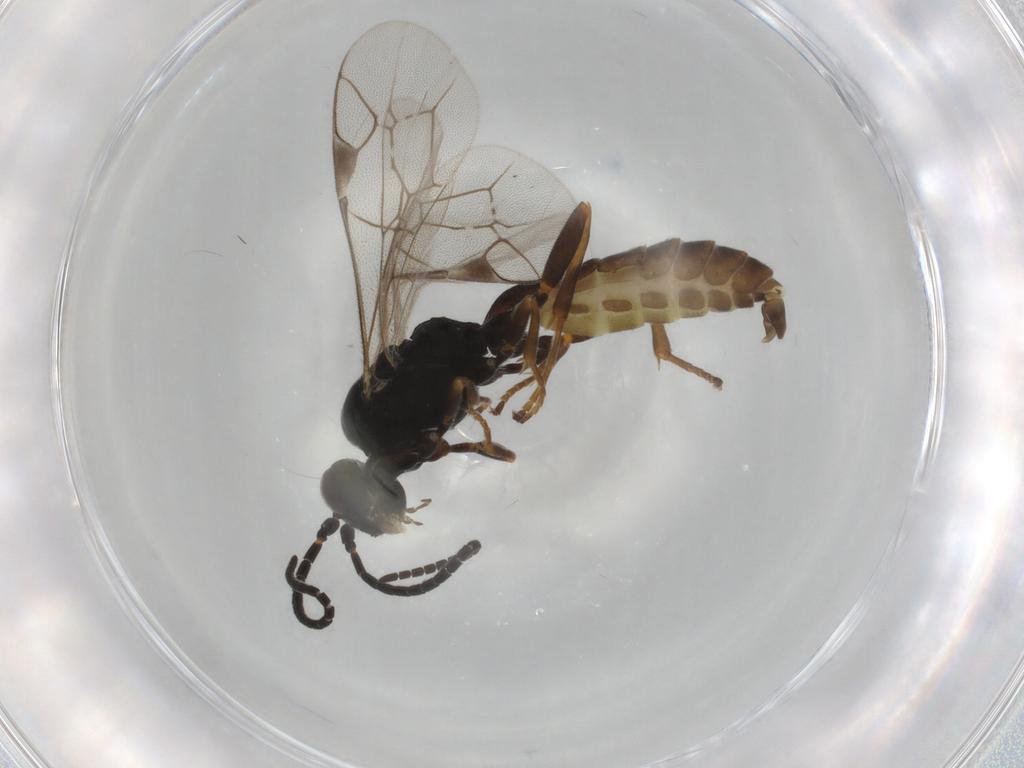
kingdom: Animalia
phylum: Arthropoda
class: Insecta
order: Hymenoptera
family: Ichneumonidae
